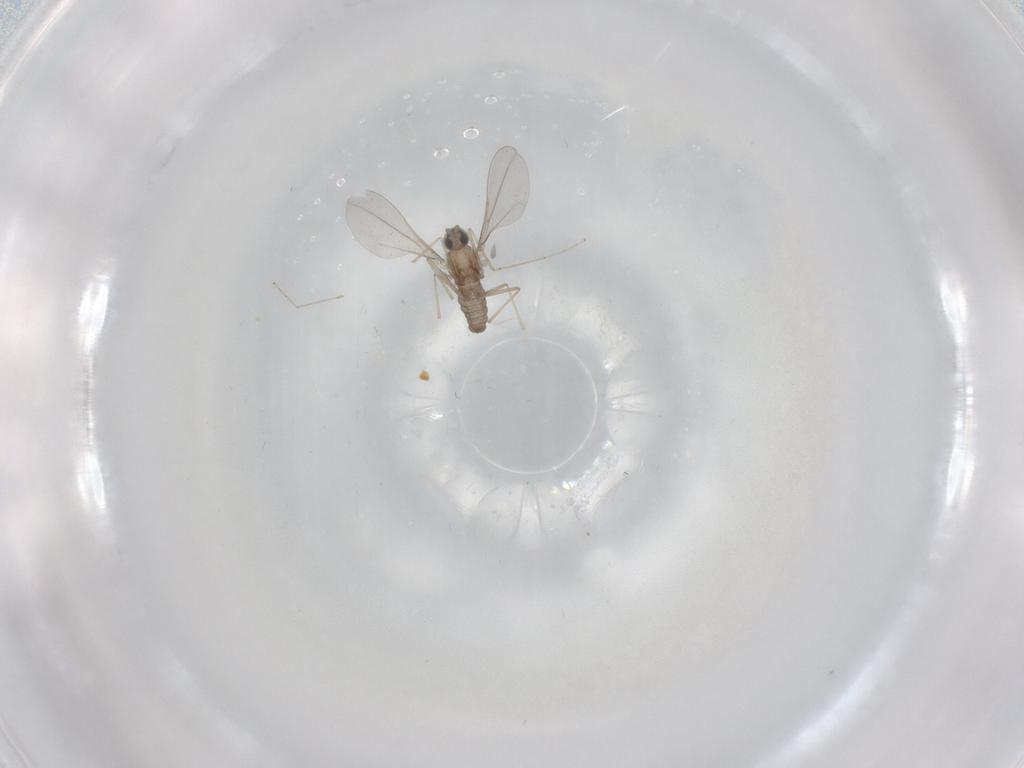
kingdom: Animalia
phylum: Arthropoda
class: Insecta
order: Diptera
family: Cecidomyiidae
